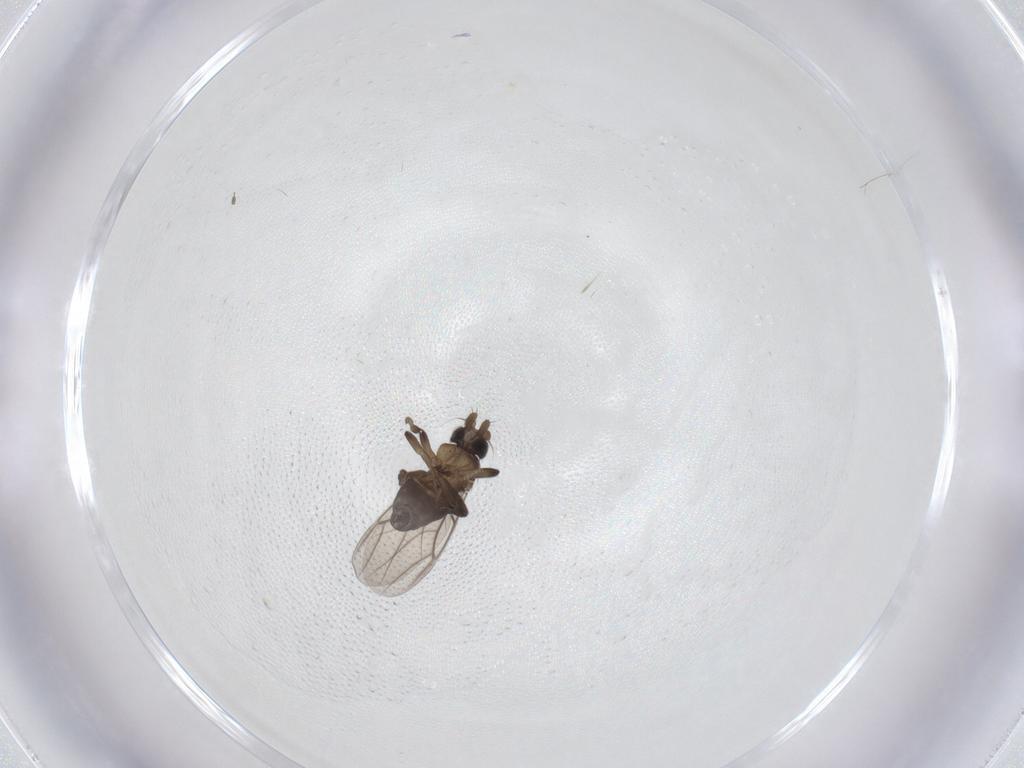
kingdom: Animalia
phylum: Arthropoda
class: Insecta
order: Diptera
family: Phoridae
